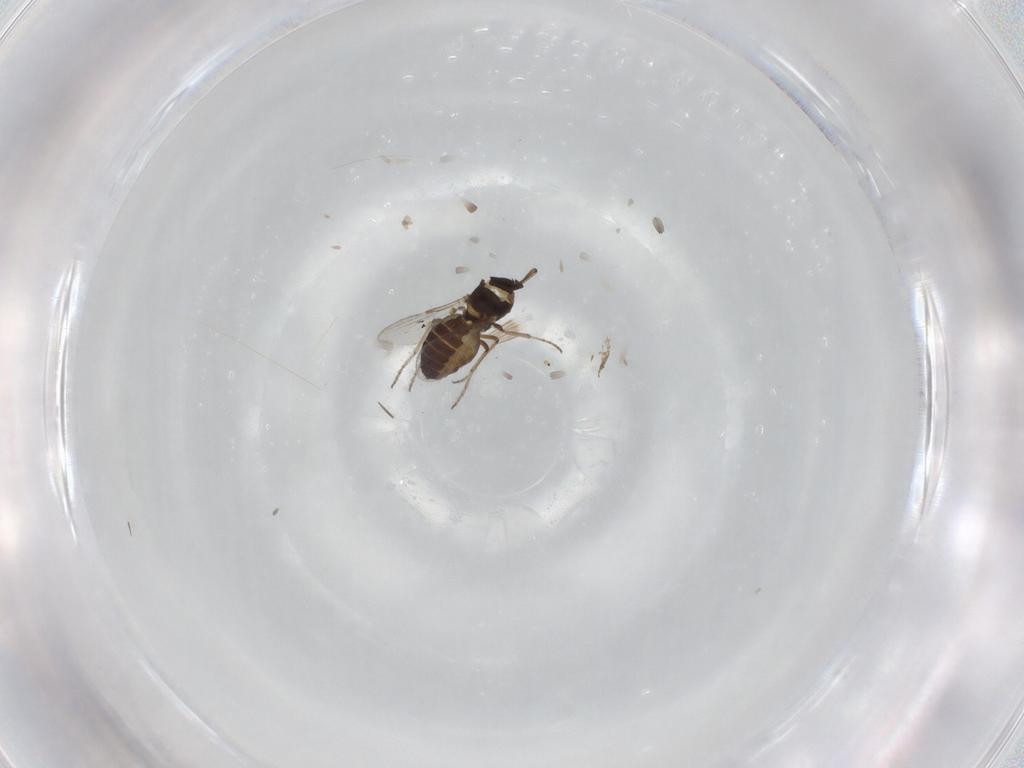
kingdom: Animalia
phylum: Arthropoda
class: Insecta
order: Diptera
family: Ceratopogonidae
